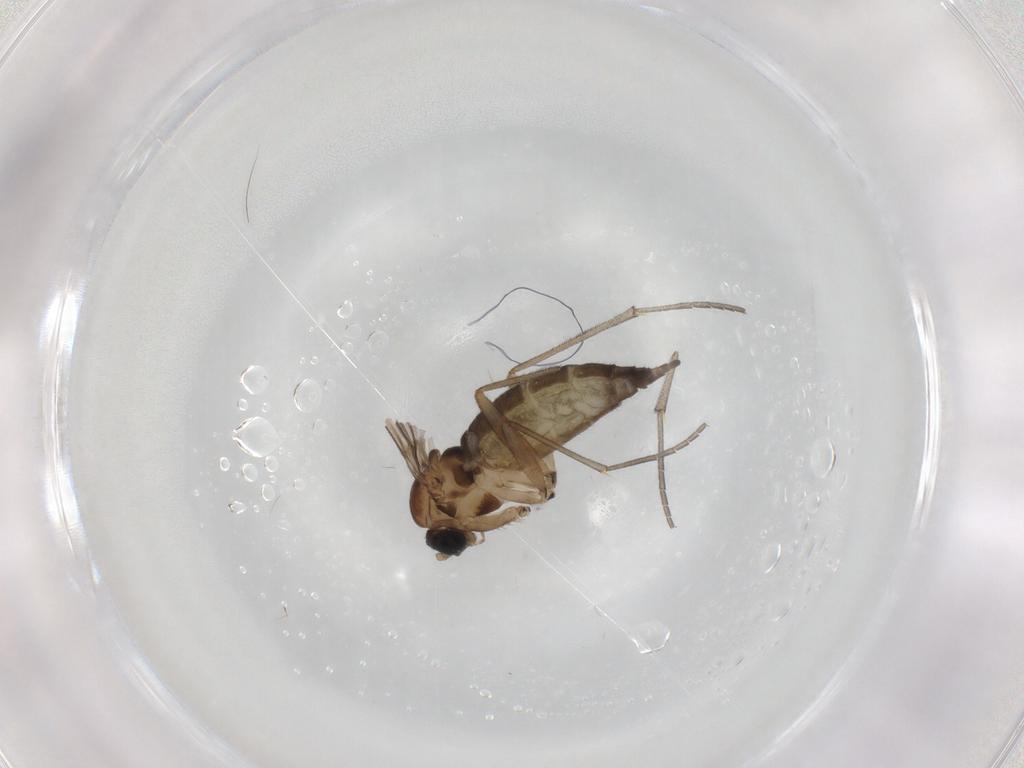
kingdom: Animalia
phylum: Arthropoda
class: Insecta
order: Diptera
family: Sciaridae
